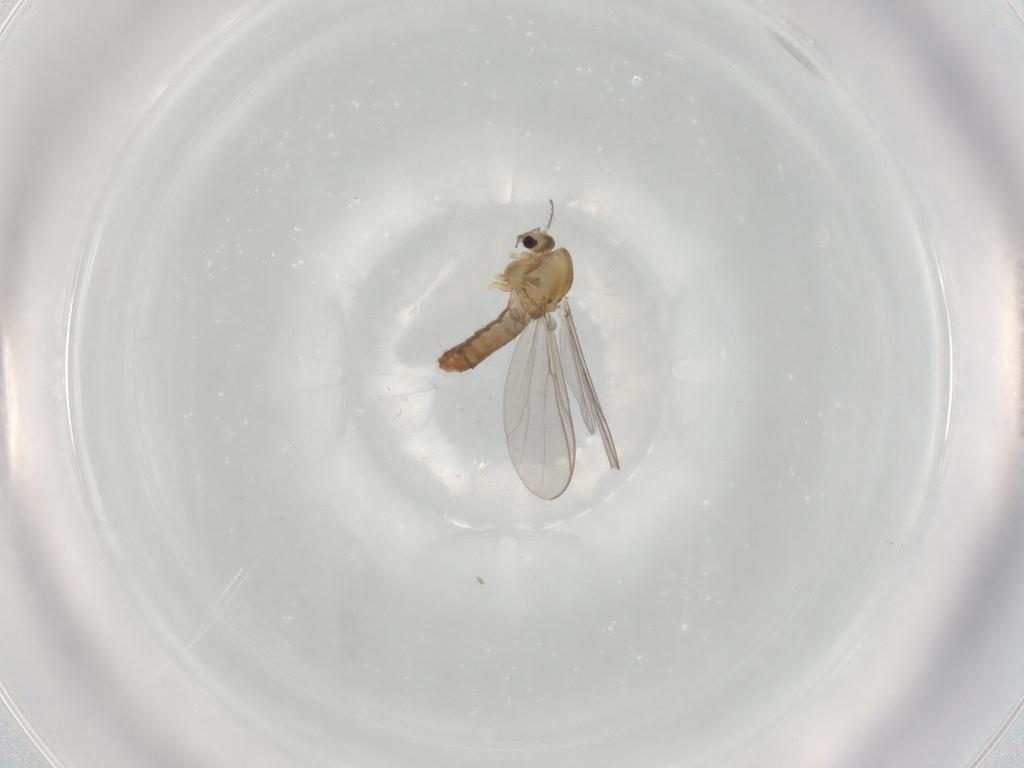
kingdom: Animalia
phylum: Arthropoda
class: Insecta
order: Diptera
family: Chironomidae
